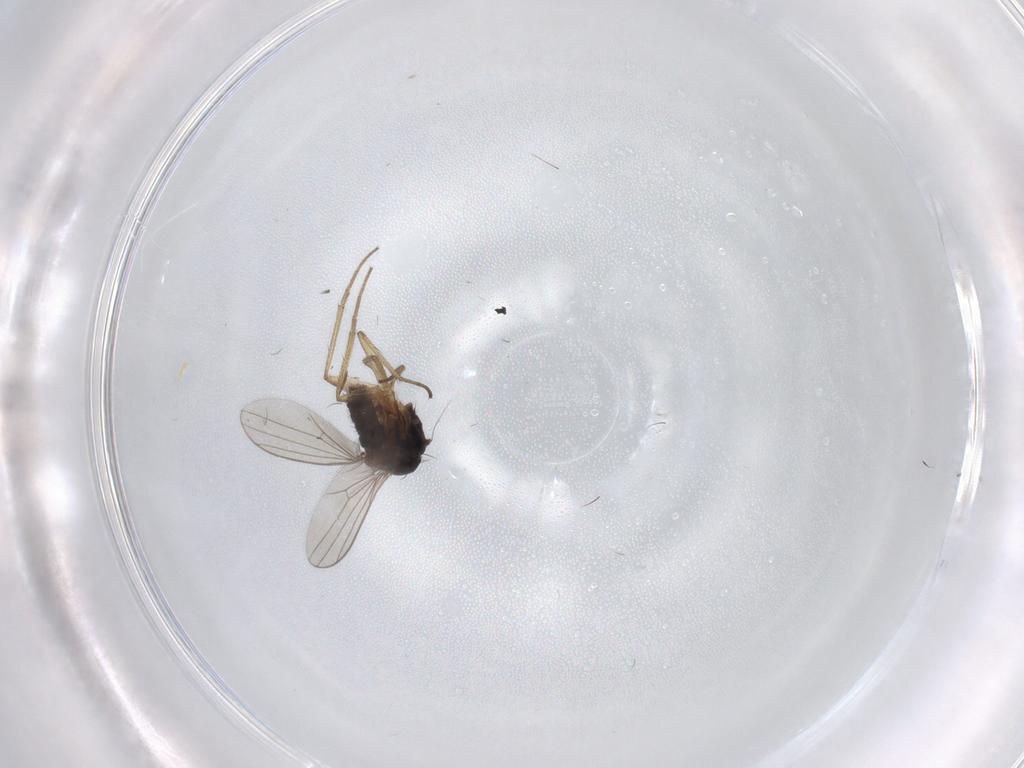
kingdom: Animalia
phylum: Arthropoda
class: Insecta
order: Diptera
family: Dolichopodidae
